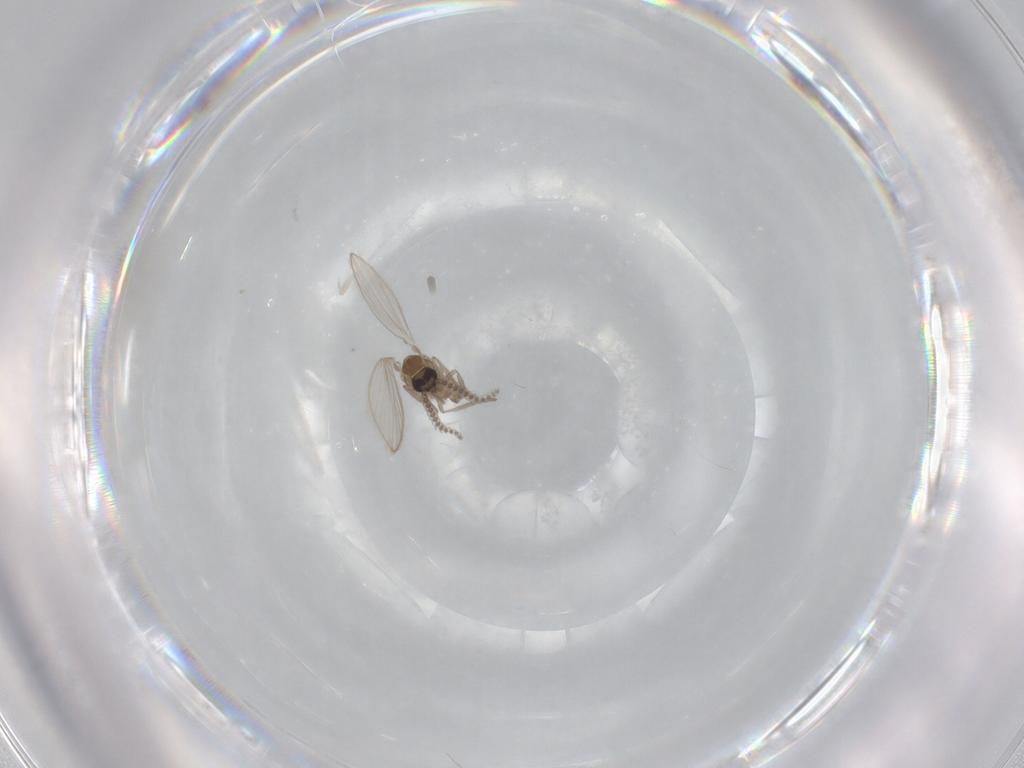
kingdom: Animalia
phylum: Arthropoda
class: Insecta
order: Diptera
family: Psychodidae
